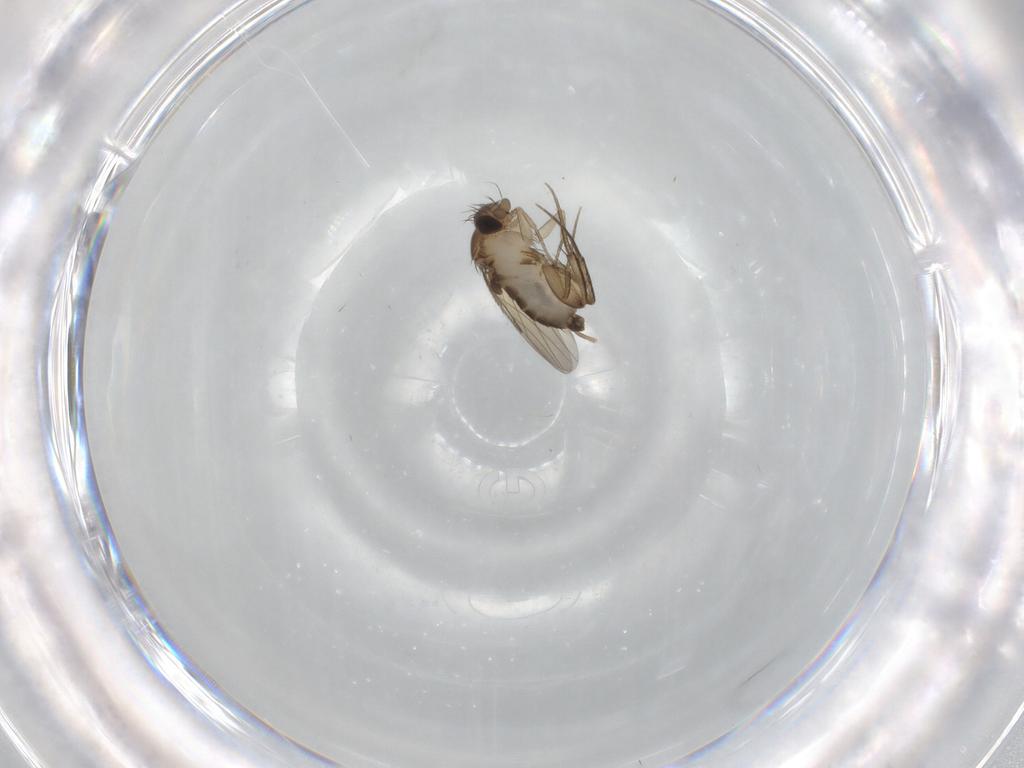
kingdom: Animalia
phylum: Arthropoda
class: Insecta
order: Diptera
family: Phoridae
